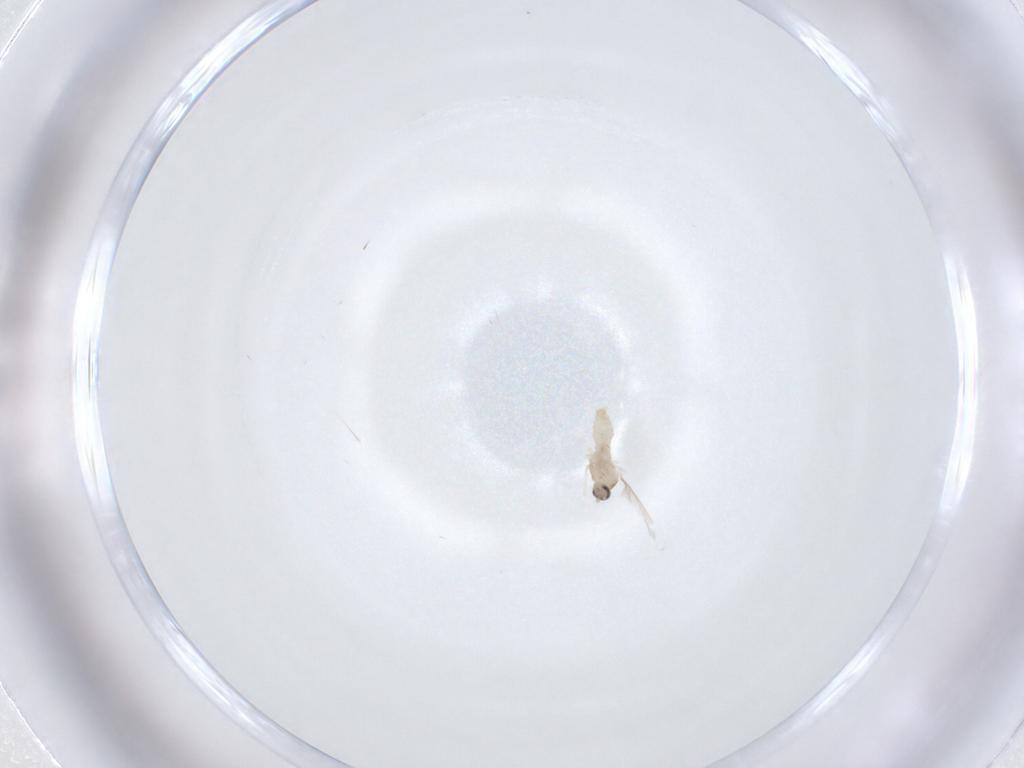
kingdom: Animalia
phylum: Arthropoda
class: Insecta
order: Diptera
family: Cecidomyiidae
